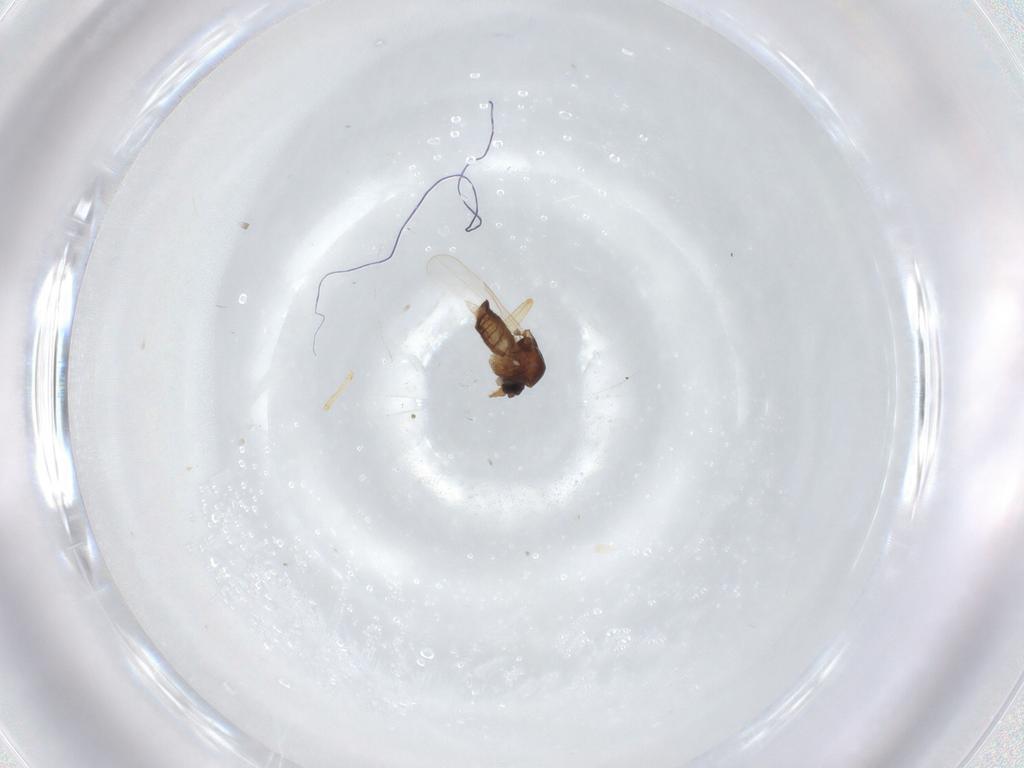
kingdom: Animalia
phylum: Arthropoda
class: Insecta
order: Diptera
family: Ceratopogonidae
